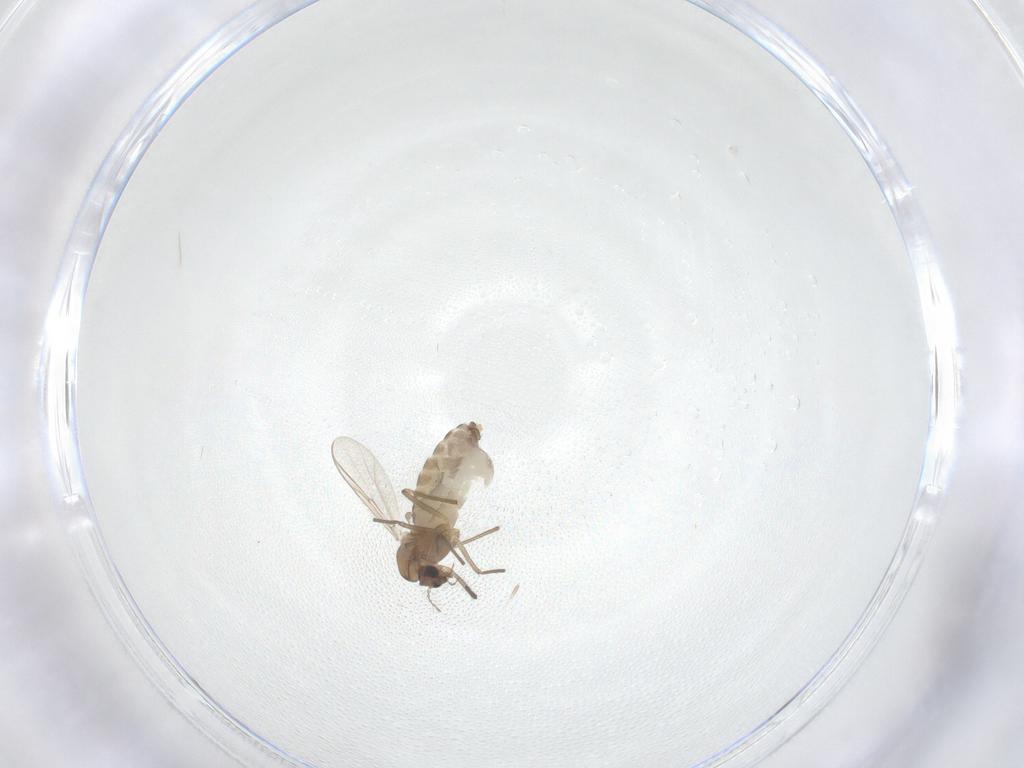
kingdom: Animalia
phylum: Arthropoda
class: Insecta
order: Diptera
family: Chironomidae
